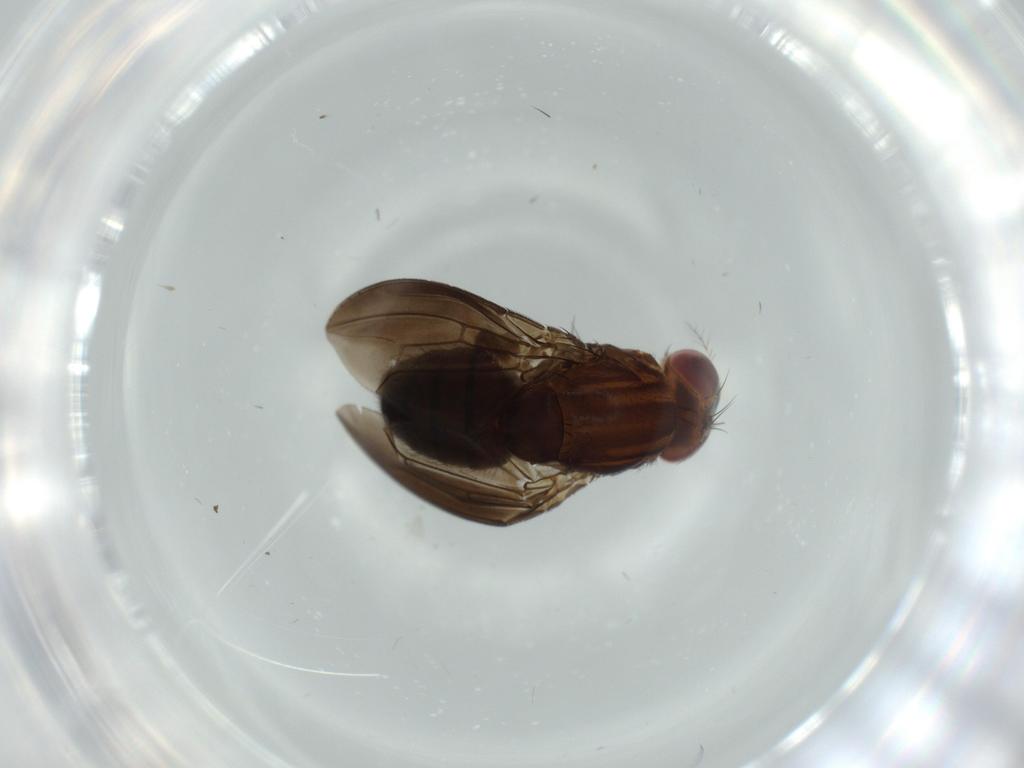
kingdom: Animalia
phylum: Arthropoda
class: Insecta
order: Diptera
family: Drosophilidae
